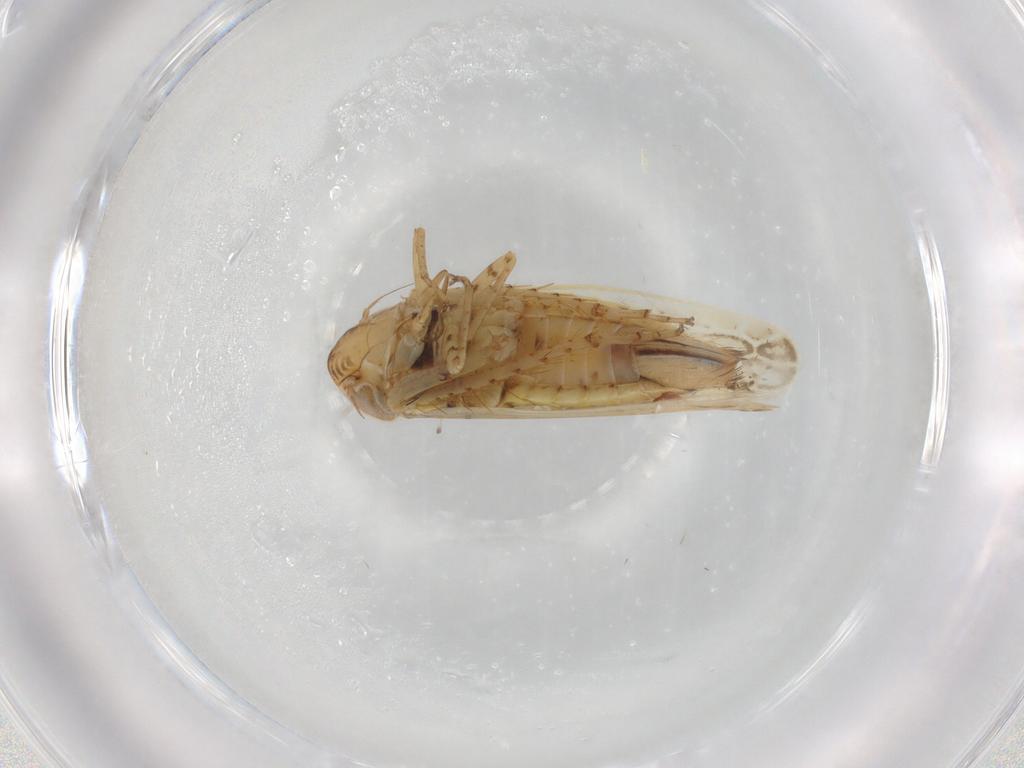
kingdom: Animalia
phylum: Arthropoda
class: Insecta
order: Hemiptera
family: Cicadellidae
